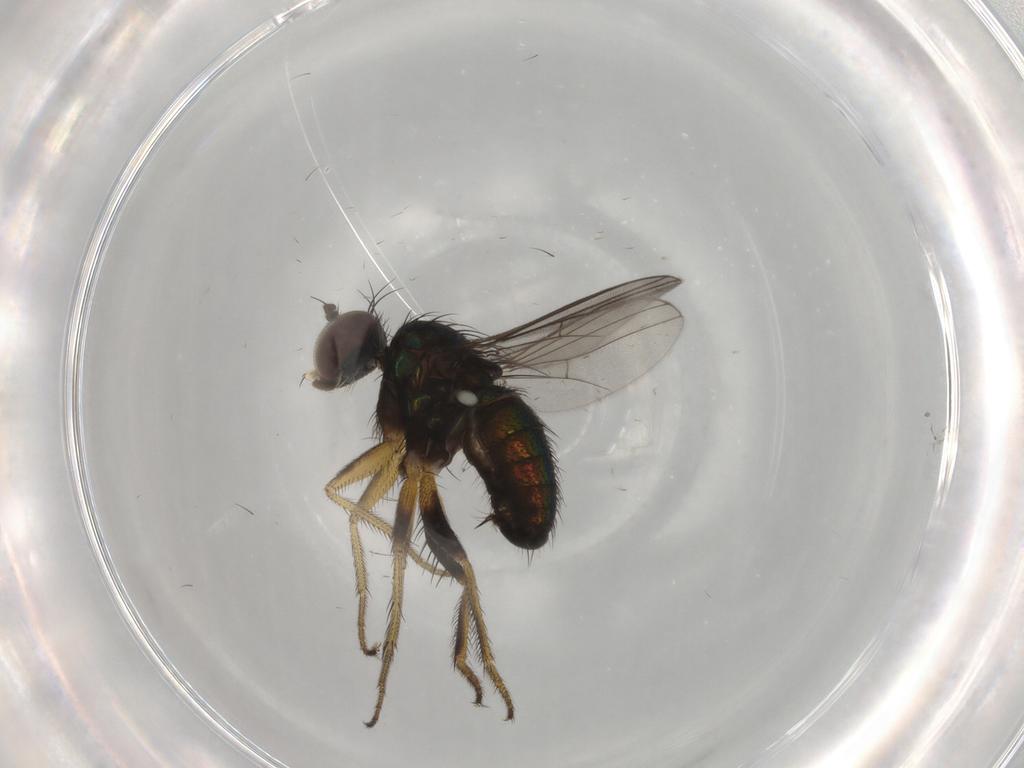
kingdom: Animalia
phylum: Arthropoda
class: Insecta
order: Diptera
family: Dolichopodidae
